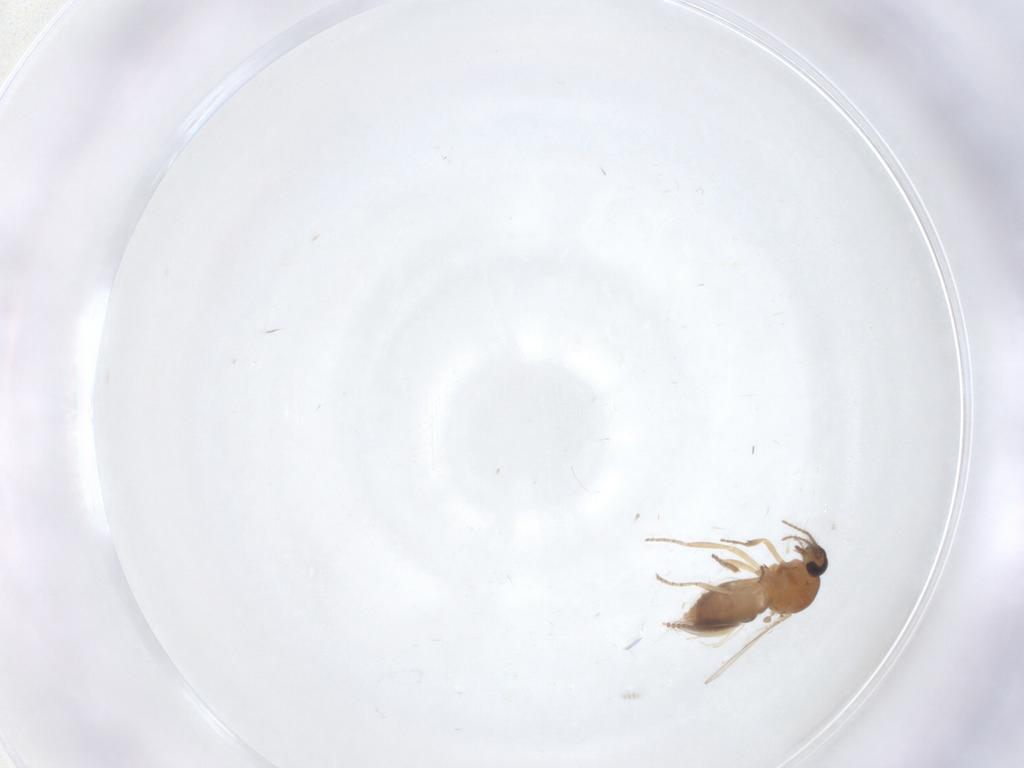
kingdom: Animalia
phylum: Arthropoda
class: Insecta
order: Diptera
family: Ceratopogonidae
